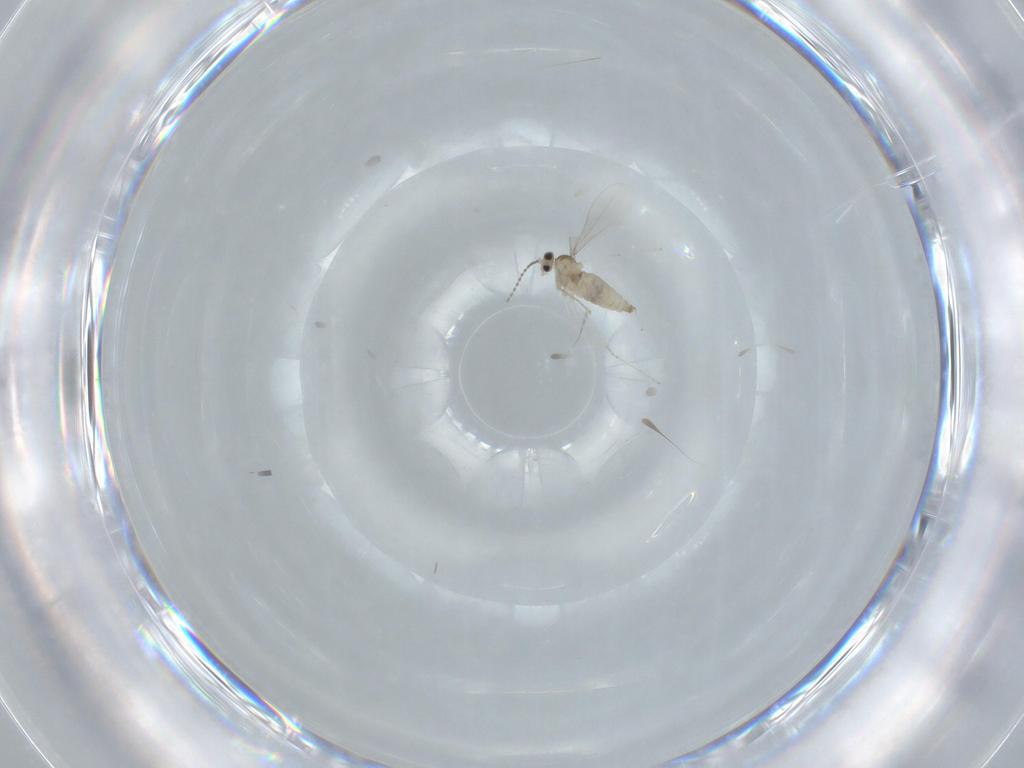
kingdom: Animalia
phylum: Arthropoda
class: Insecta
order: Diptera
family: Cecidomyiidae
